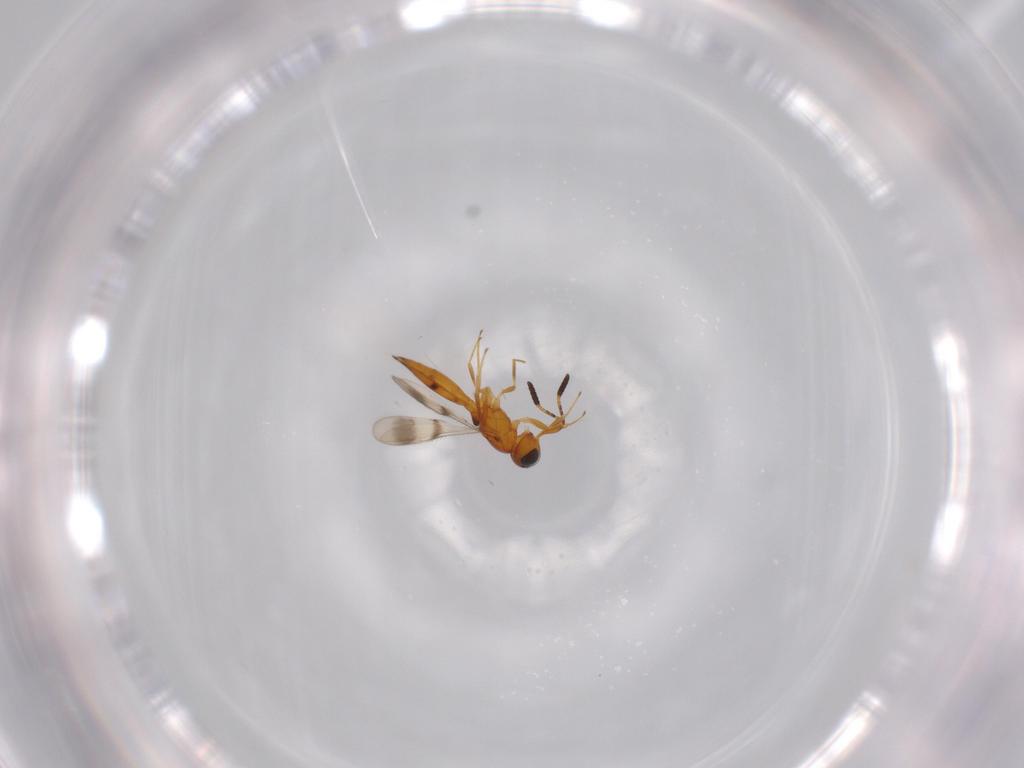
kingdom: Animalia
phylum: Arthropoda
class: Insecta
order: Hymenoptera
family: Scelionidae
